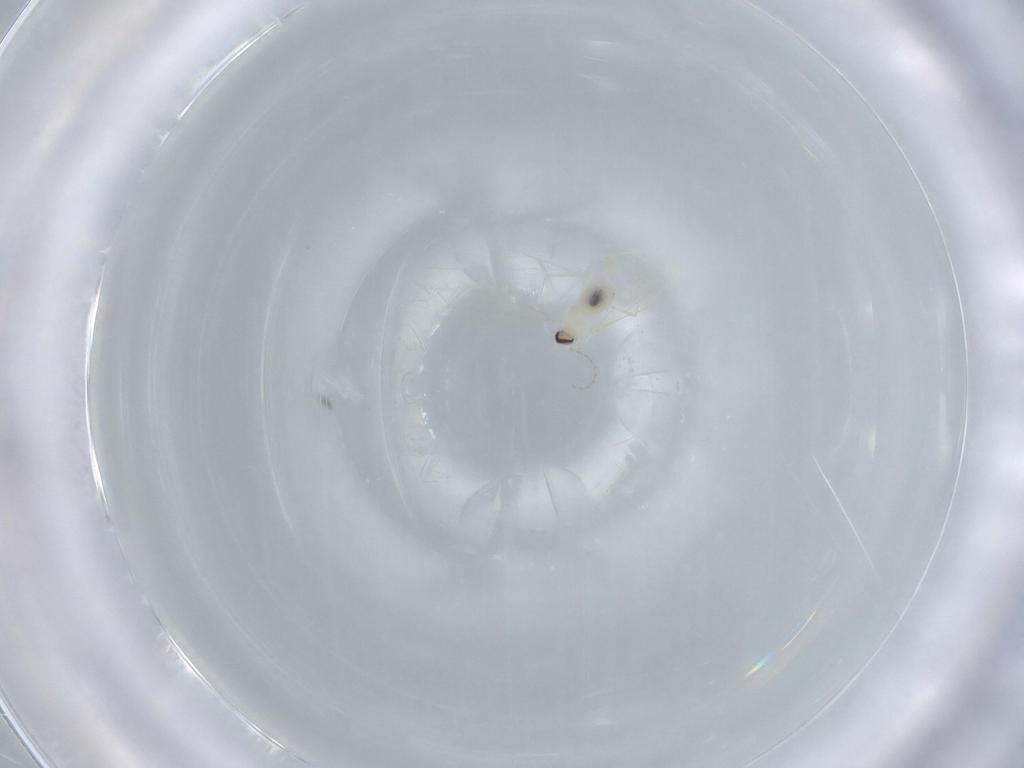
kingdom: Animalia
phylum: Arthropoda
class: Insecta
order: Diptera
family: Cecidomyiidae
